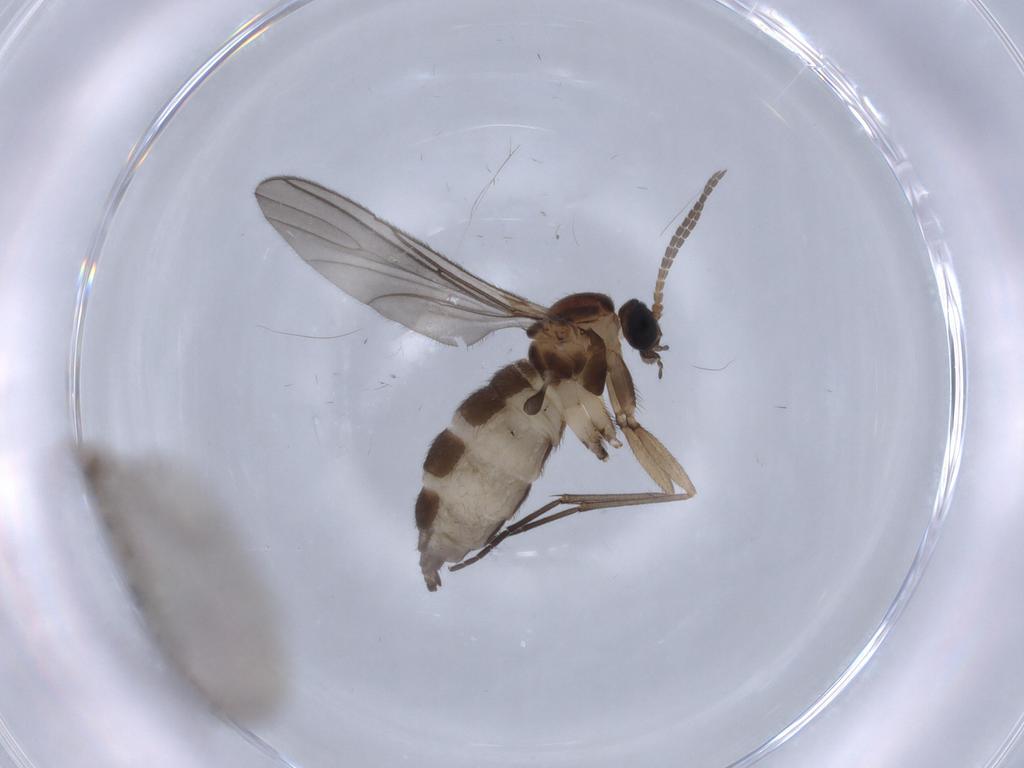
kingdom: Animalia
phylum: Arthropoda
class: Insecta
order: Diptera
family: Sciaridae
